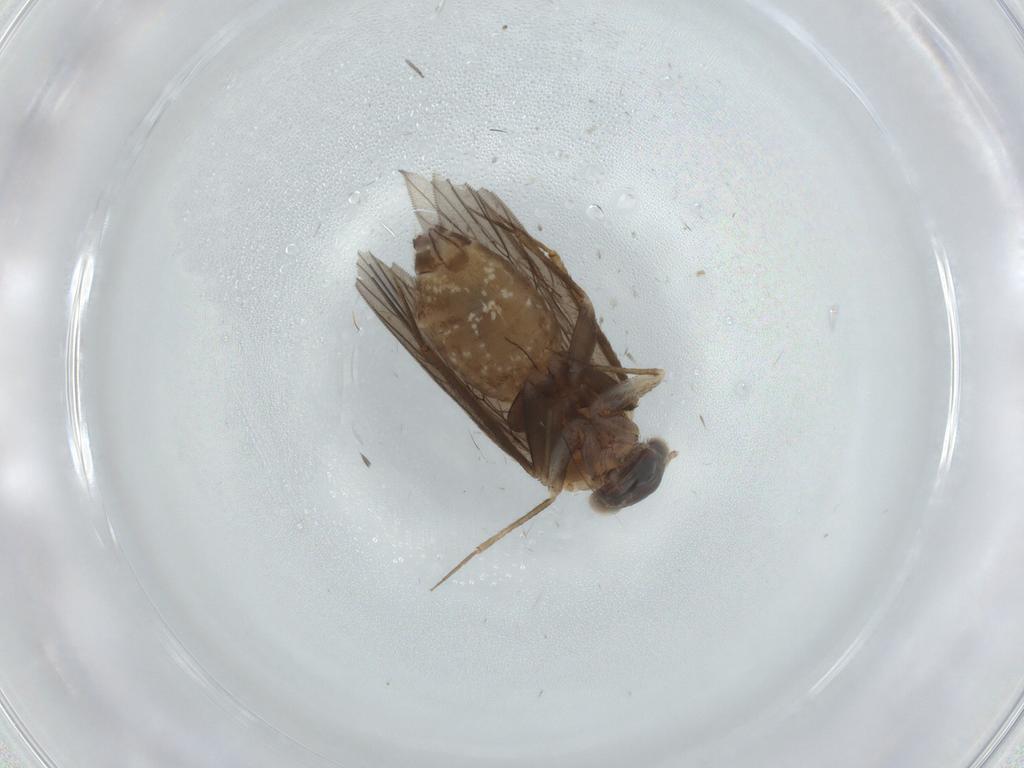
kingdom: Animalia
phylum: Arthropoda
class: Insecta
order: Psocodea
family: Lepidopsocidae
